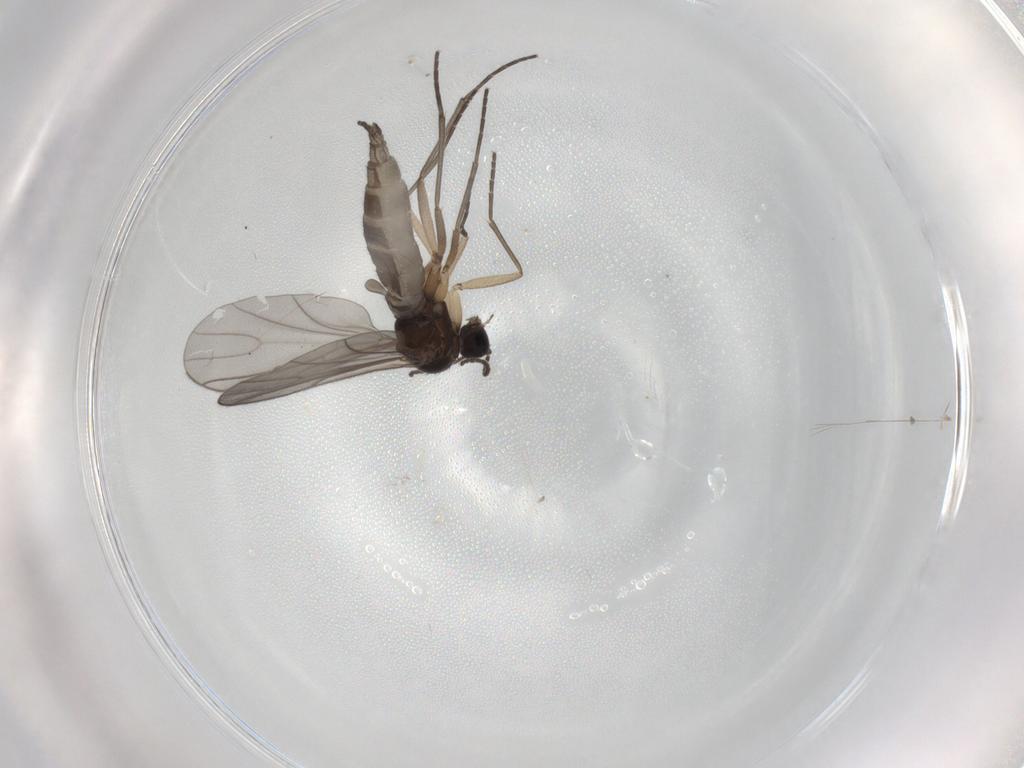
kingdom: Animalia
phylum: Arthropoda
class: Insecta
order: Diptera
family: Sciaridae
